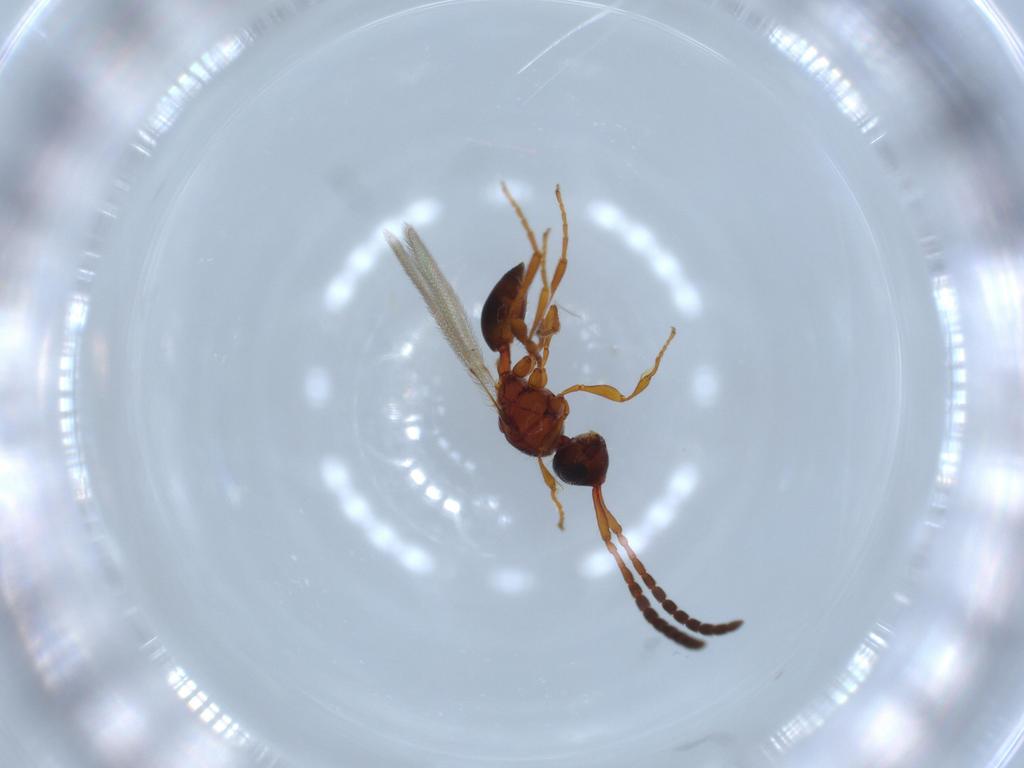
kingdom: Animalia
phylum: Arthropoda
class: Insecta
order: Hymenoptera
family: Diapriidae
